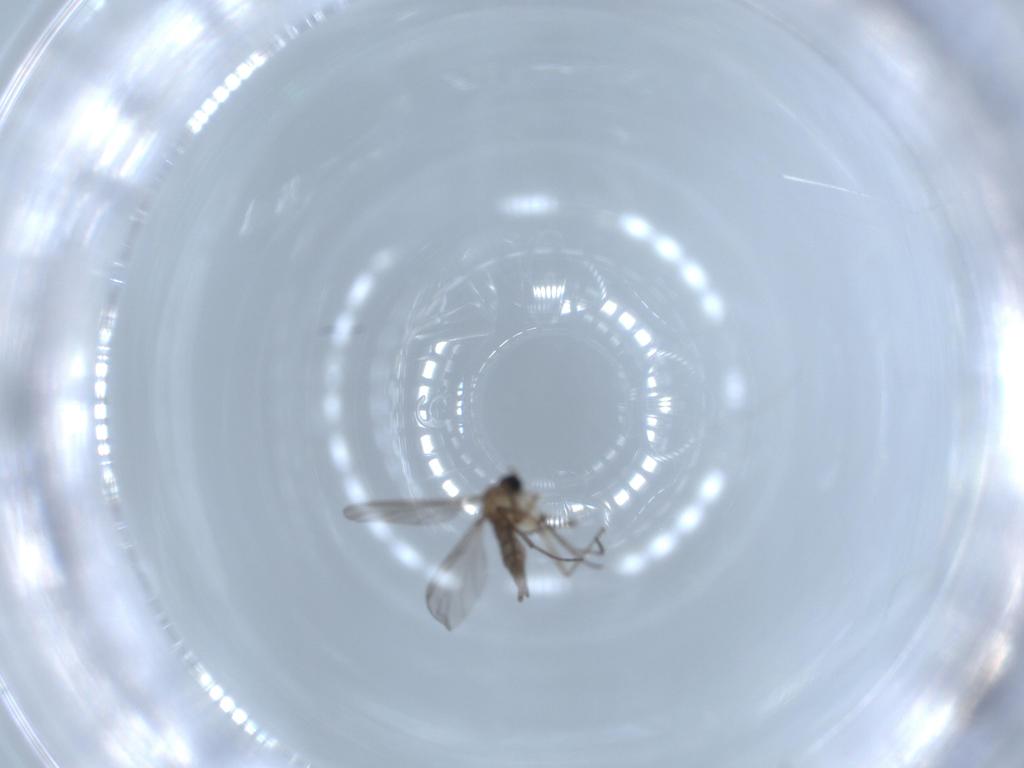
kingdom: Animalia
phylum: Arthropoda
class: Insecta
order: Diptera
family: Sciaridae
